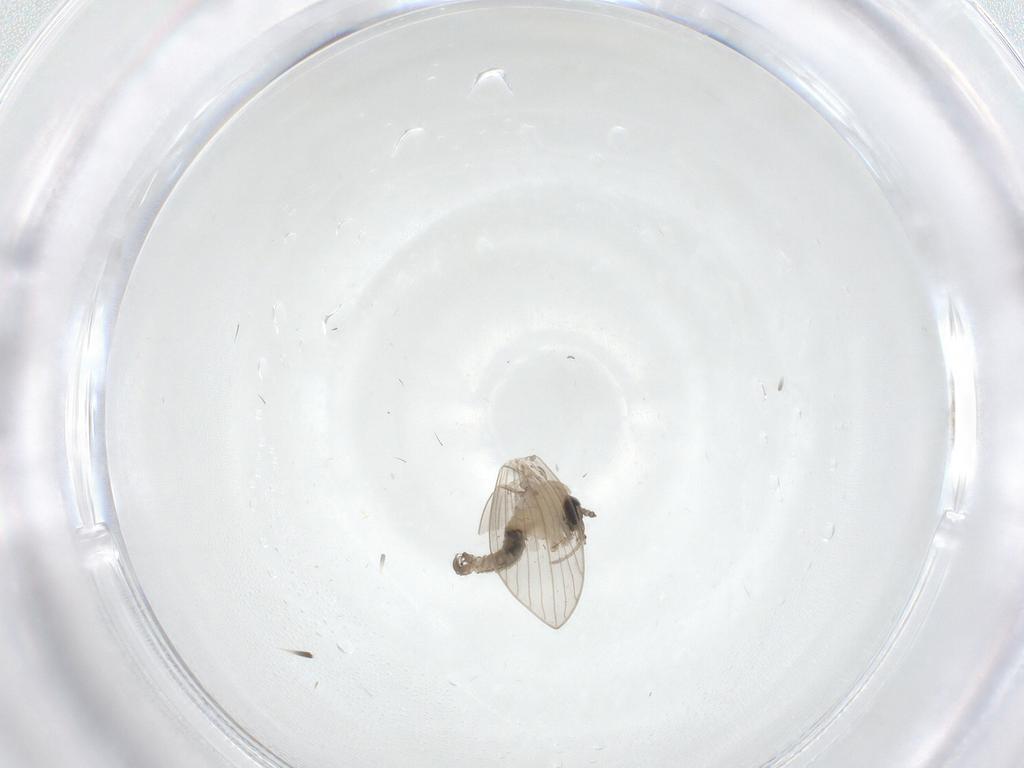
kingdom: Animalia
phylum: Arthropoda
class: Insecta
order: Diptera
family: Psychodidae
